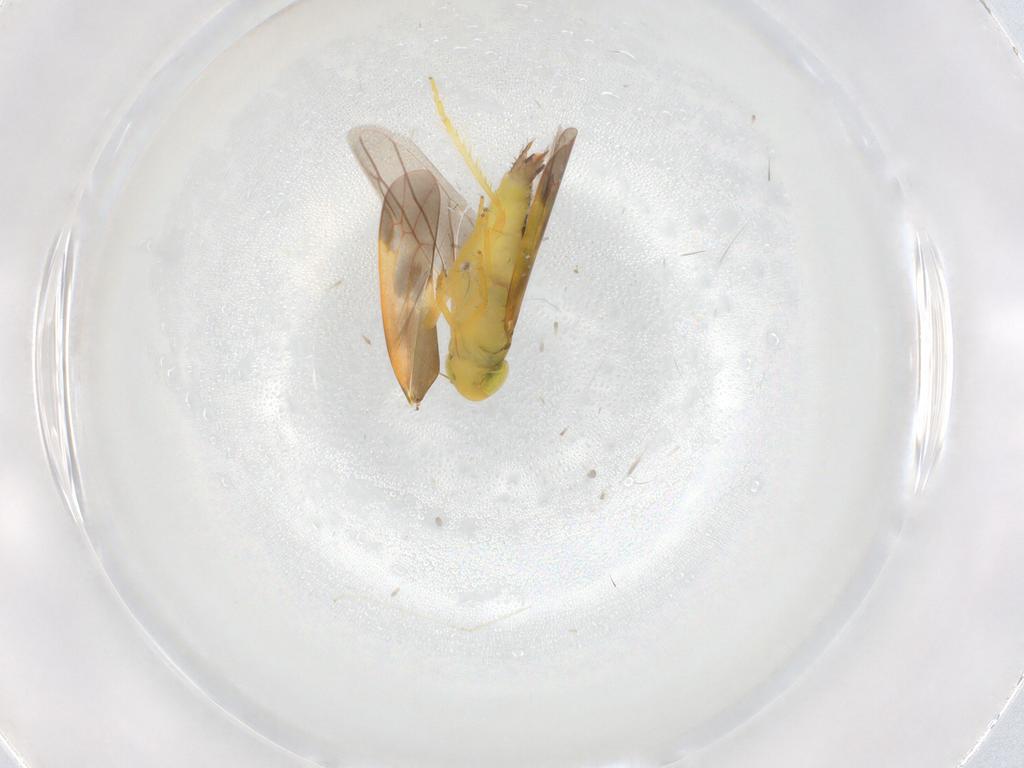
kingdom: Animalia
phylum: Arthropoda
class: Insecta
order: Hemiptera
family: Cicadellidae
